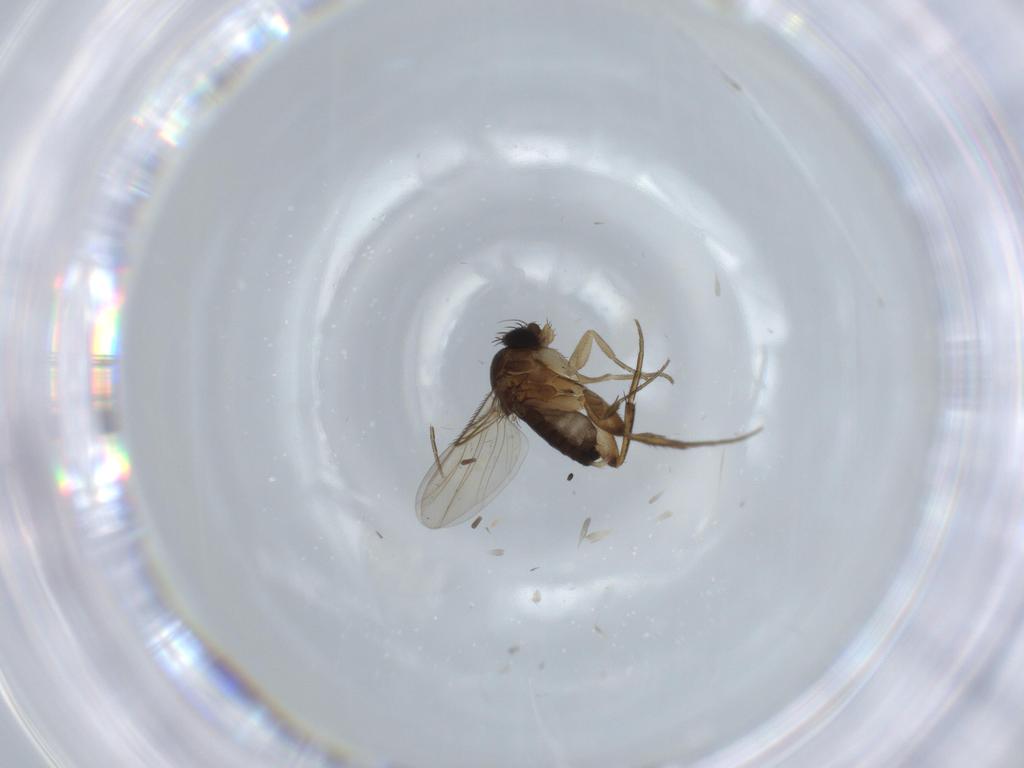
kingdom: Animalia
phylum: Arthropoda
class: Insecta
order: Diptera
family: Phoridae
